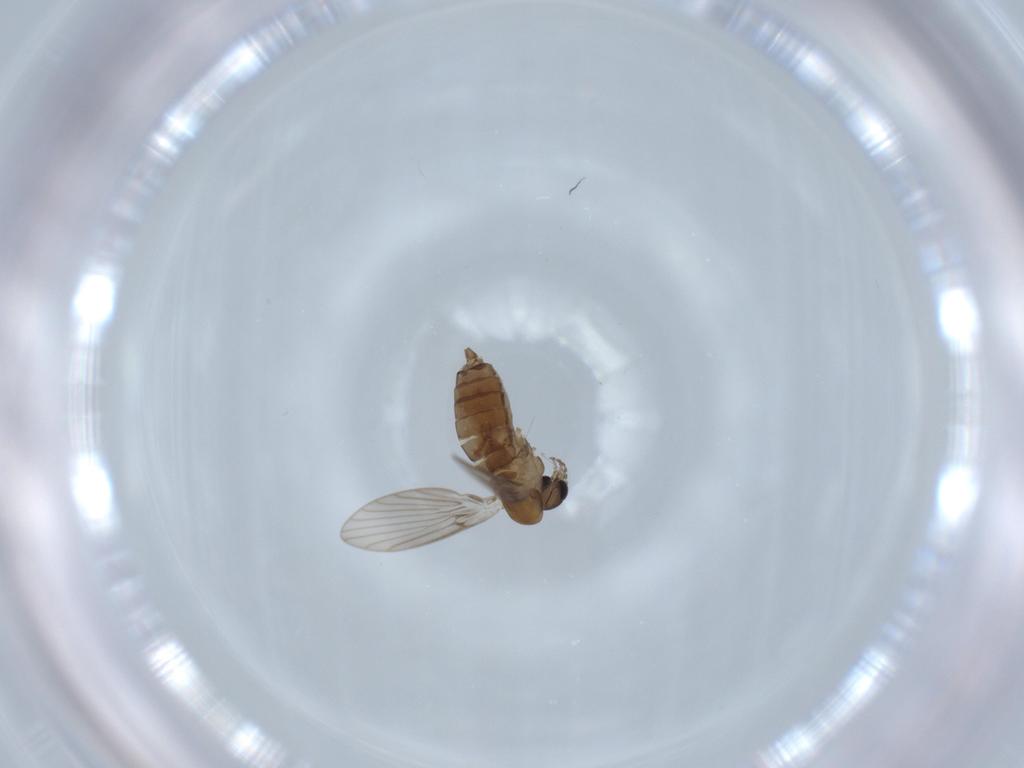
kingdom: Animalia
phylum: Arthropoda
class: Insecta
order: Diptera
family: Psychodidae
